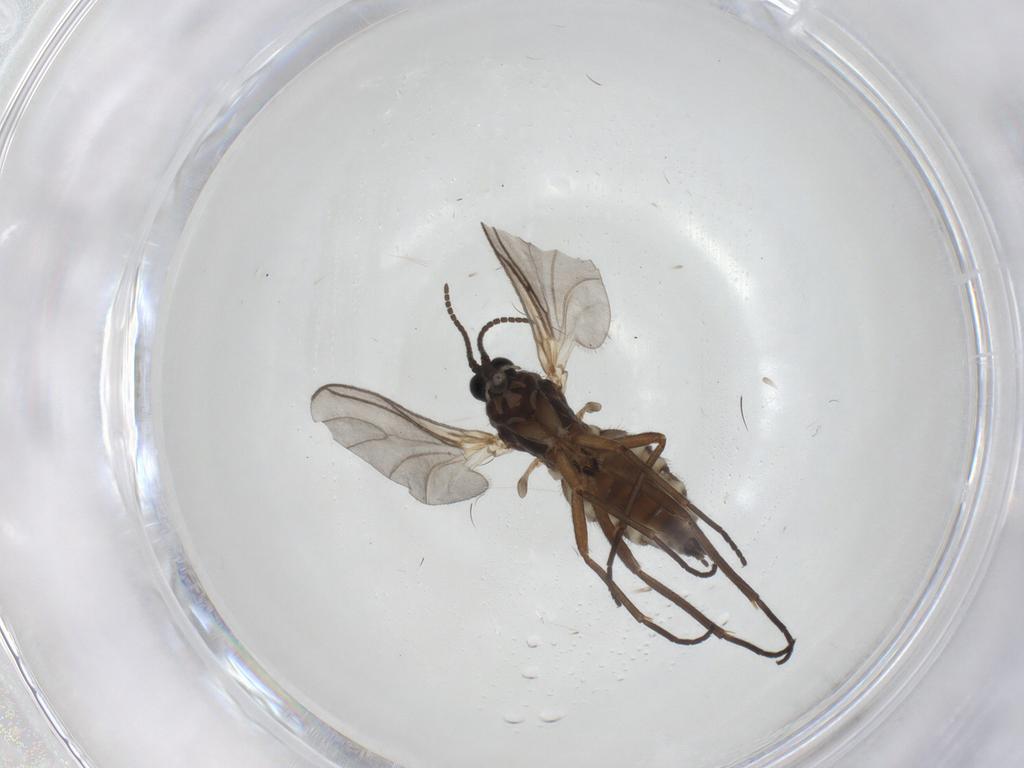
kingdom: Animalia
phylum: Arthropoda
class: Insecta
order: Diptera
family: Sciaridae
